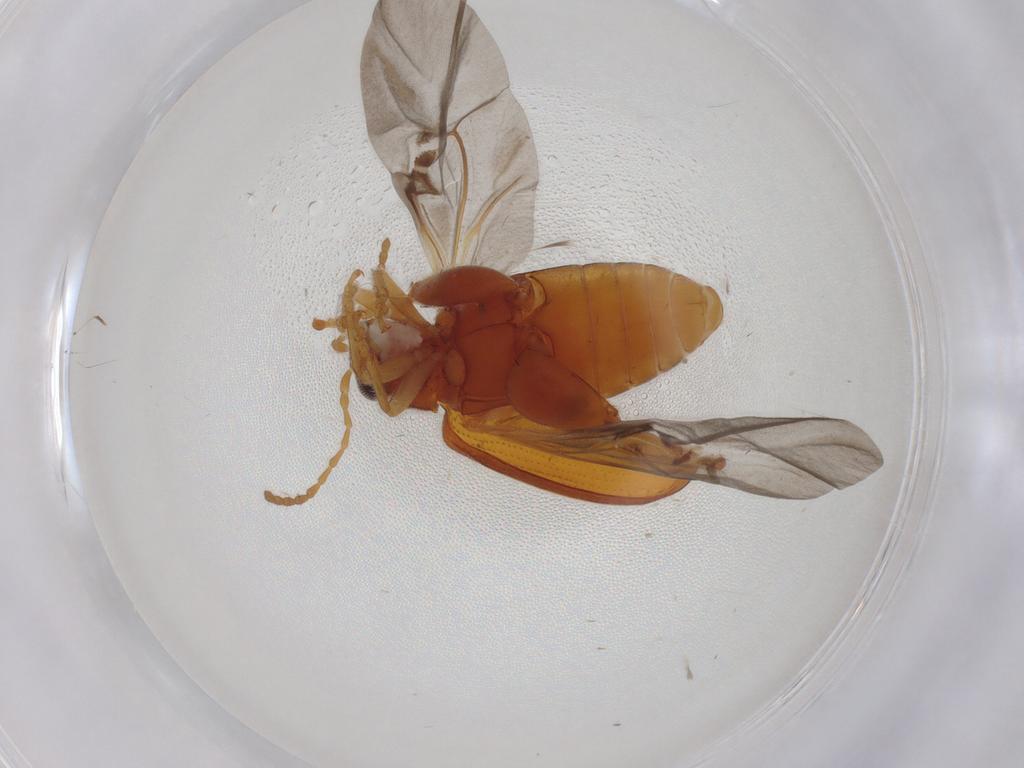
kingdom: Animalia
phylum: Arthropoda
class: Insecta
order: Coleoptera
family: Chrysomelidae
